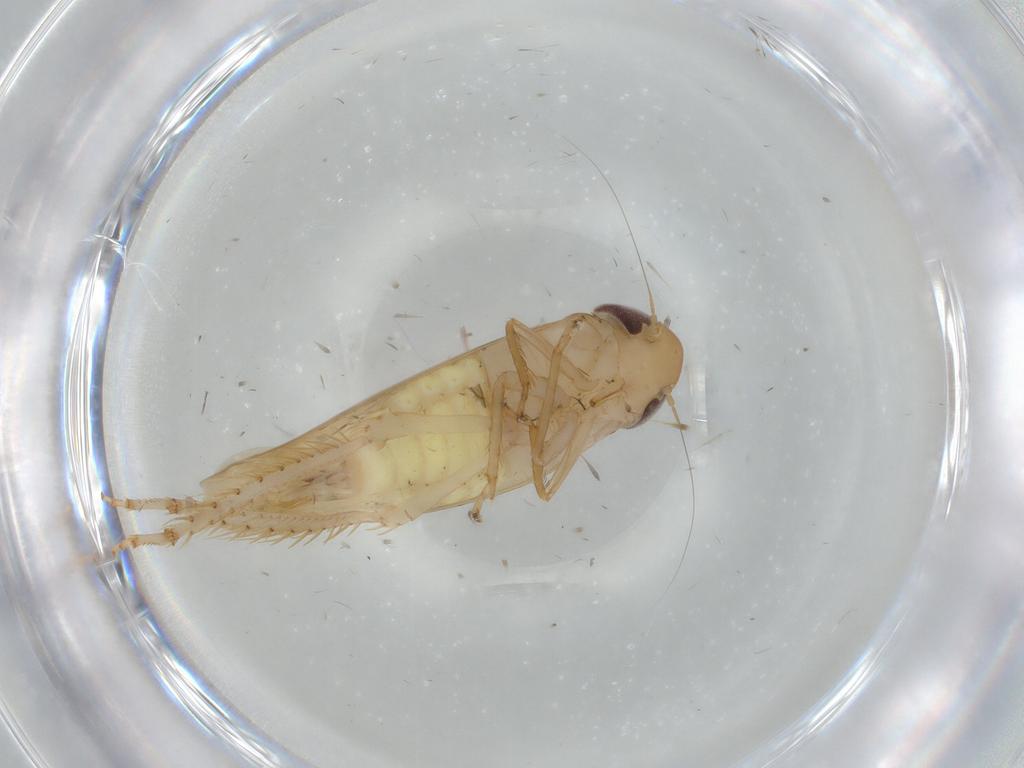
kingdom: Animalia
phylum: Arthropoda
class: Insecta
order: Hemiptera
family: Cicadellidae
